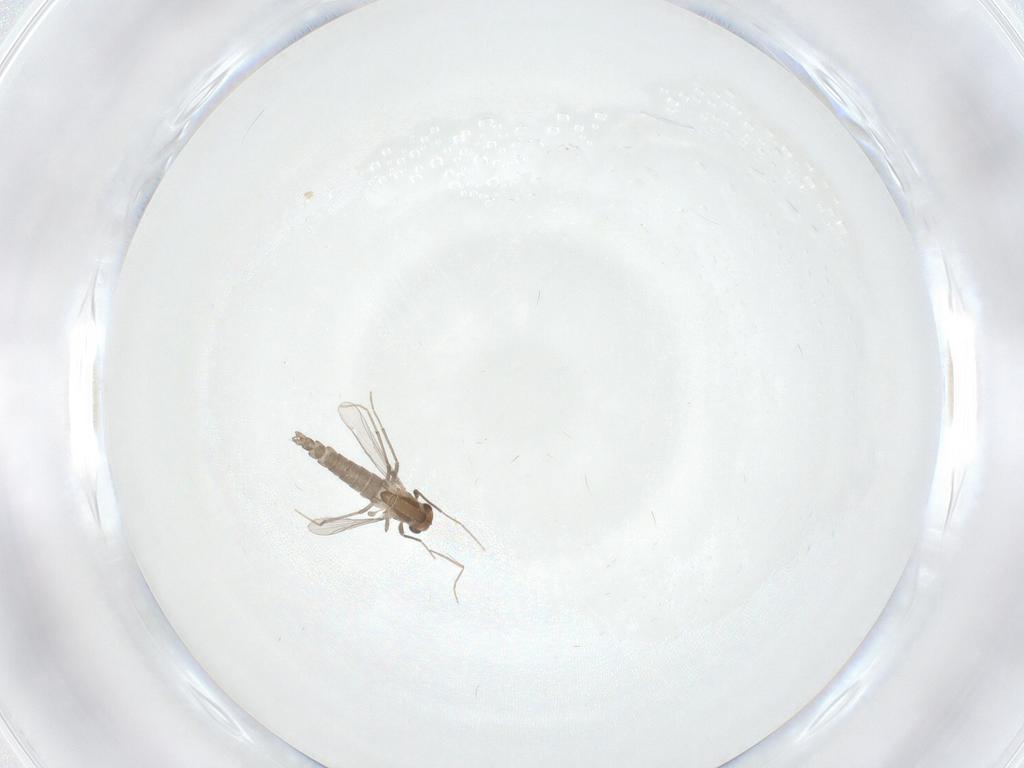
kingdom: Animalia
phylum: Arthropoda
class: Insecta
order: Diptera
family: Chironomidae
